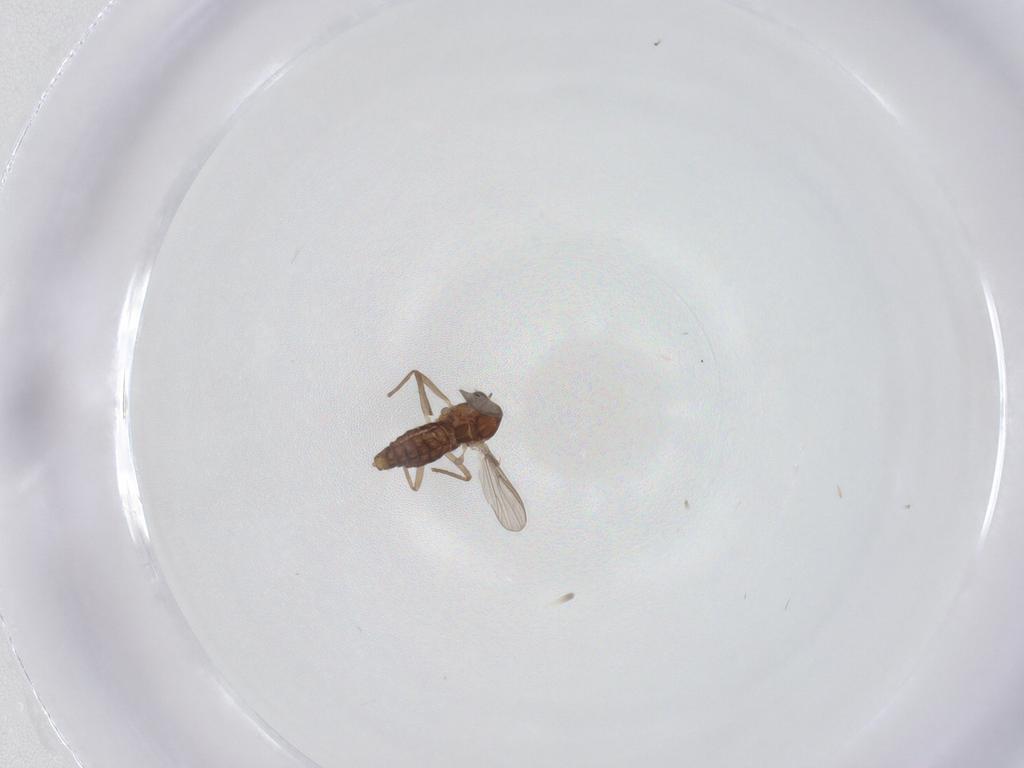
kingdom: Animalia
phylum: Arthropoda
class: Insecta
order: Diptera
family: Chironomidae
